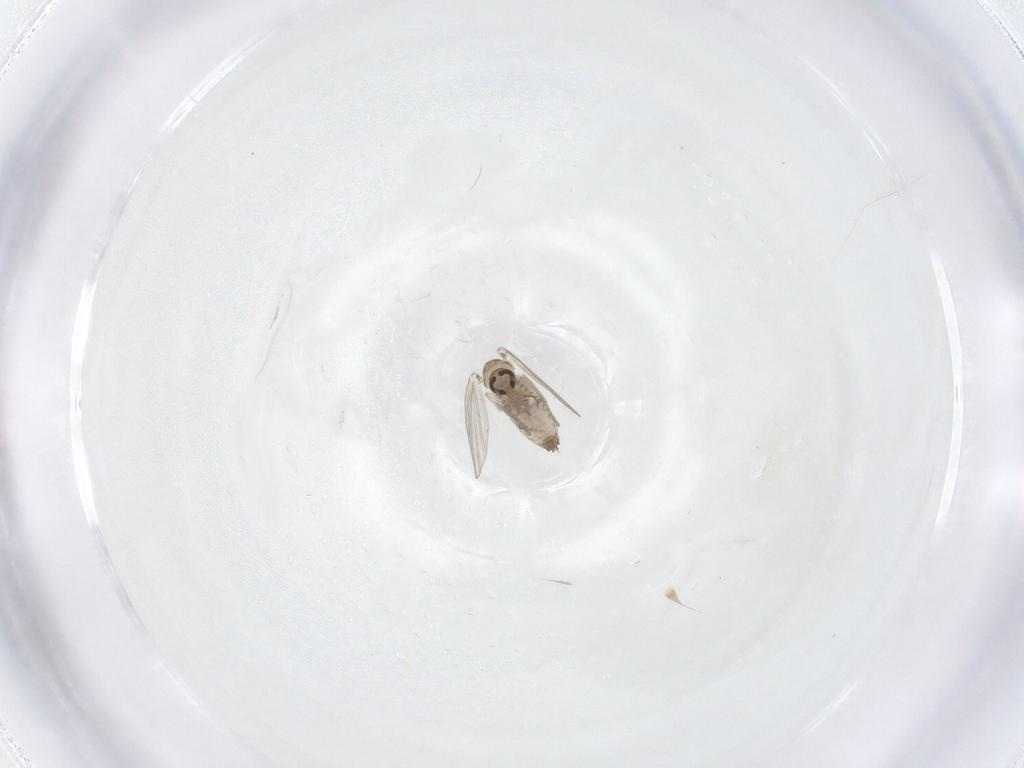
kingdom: Animalia
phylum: Arthropoda
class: Insecta
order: Diptera
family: Psychodidae
